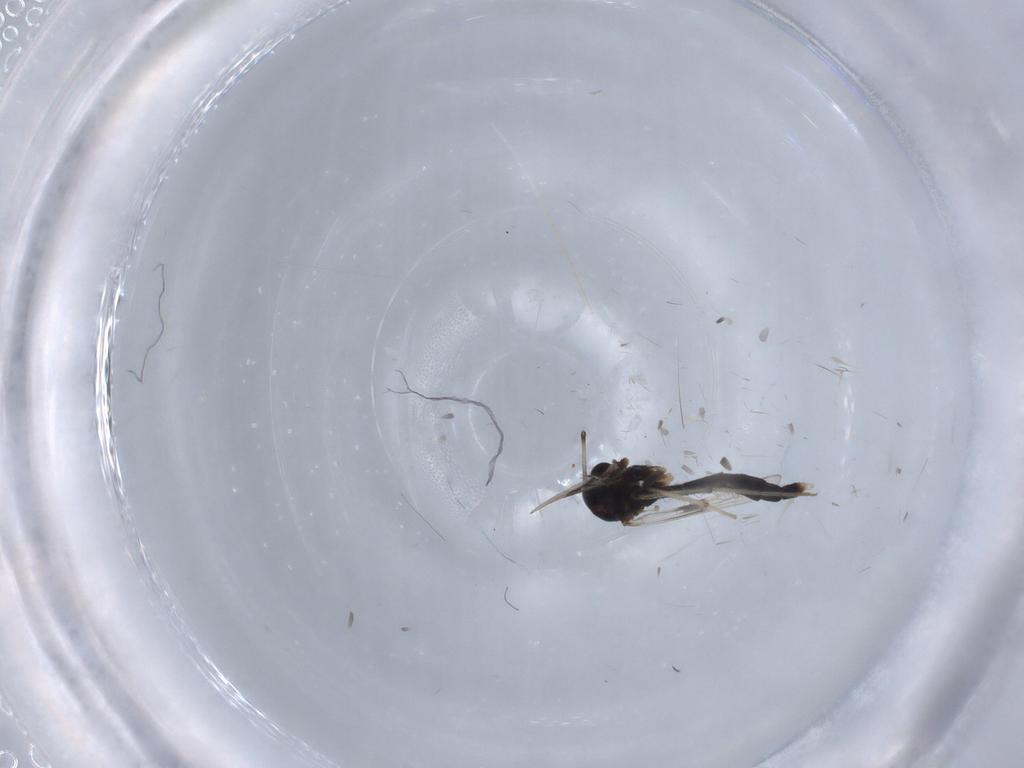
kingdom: Animalia
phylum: Arthropoda
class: Insecta
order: Diptera
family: Chironomidae
